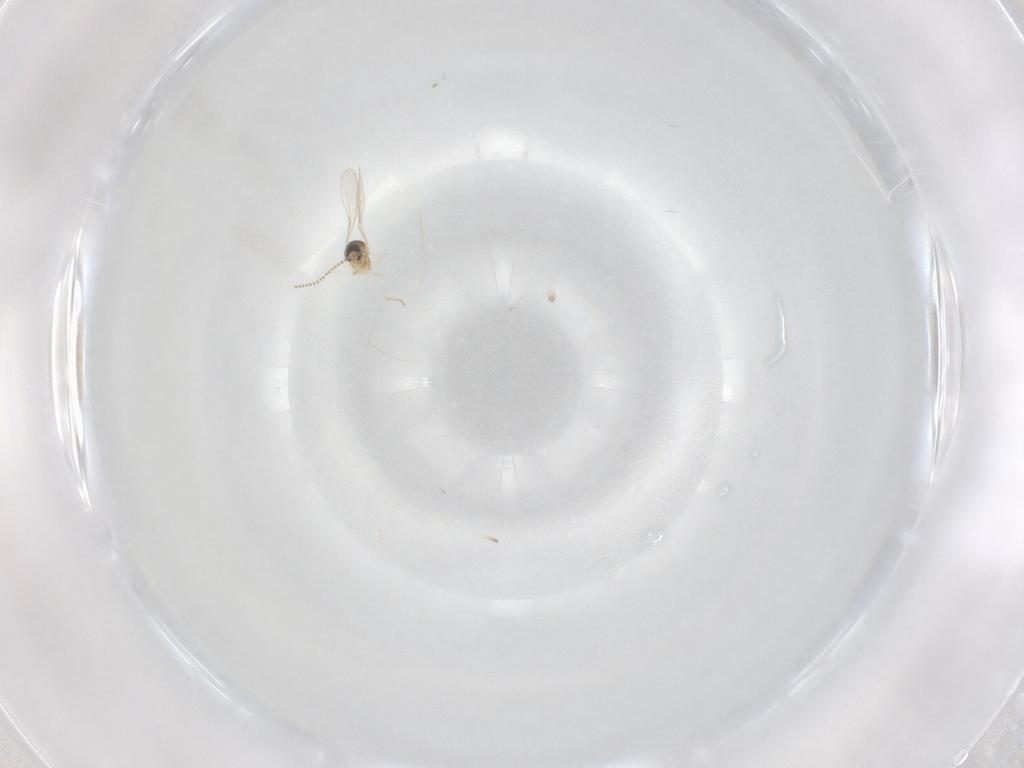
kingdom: Animalia
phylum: Arthropoda
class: Insecta
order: Diptera
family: Cecidomyiidae
